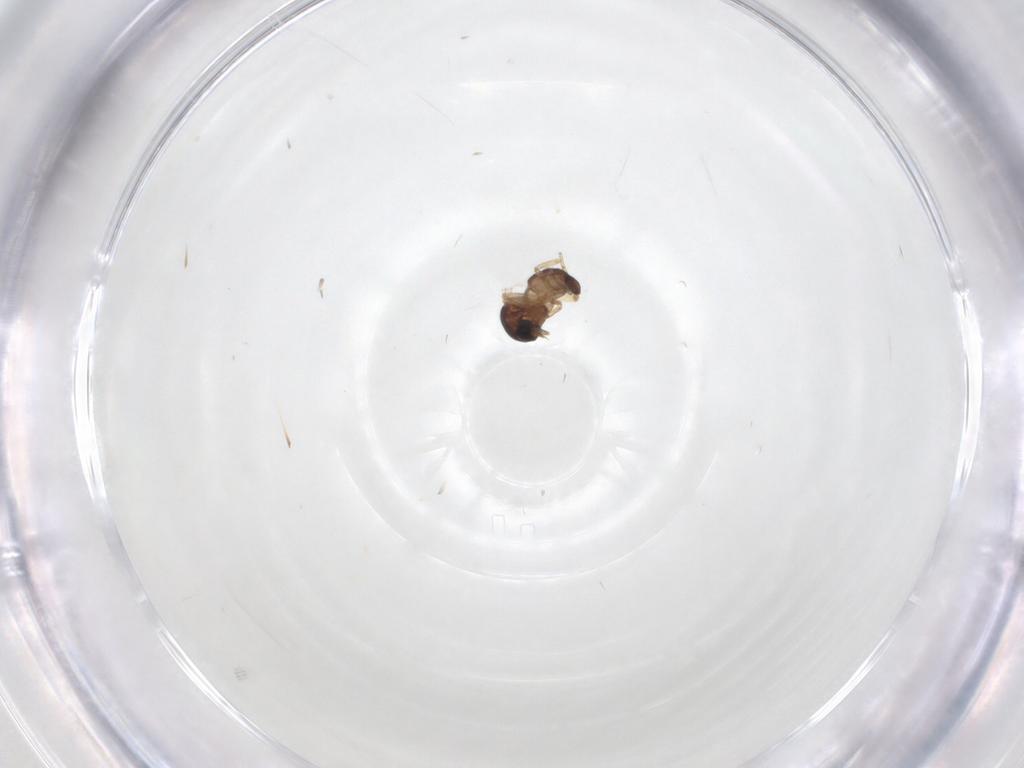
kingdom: Animalia
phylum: Arthropoda
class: Insecta
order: Diptera
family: Ceratopogonidae
